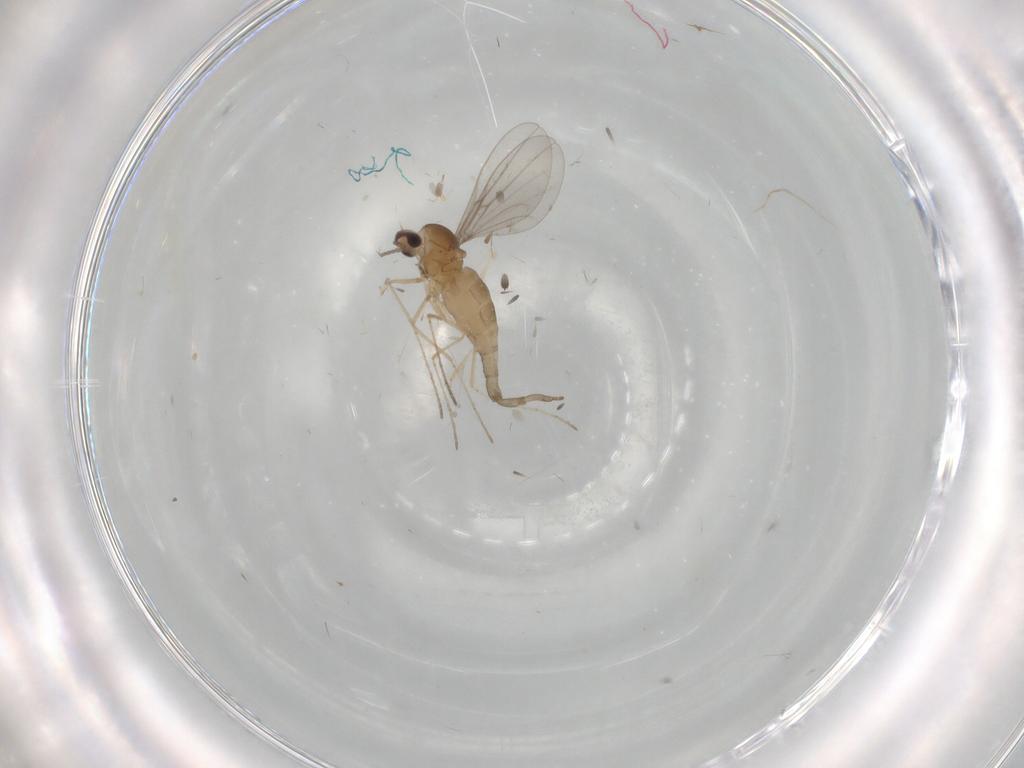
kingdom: Animalia
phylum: Arthropoda
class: Insecta
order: Diptera
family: Cecidomyiidae
